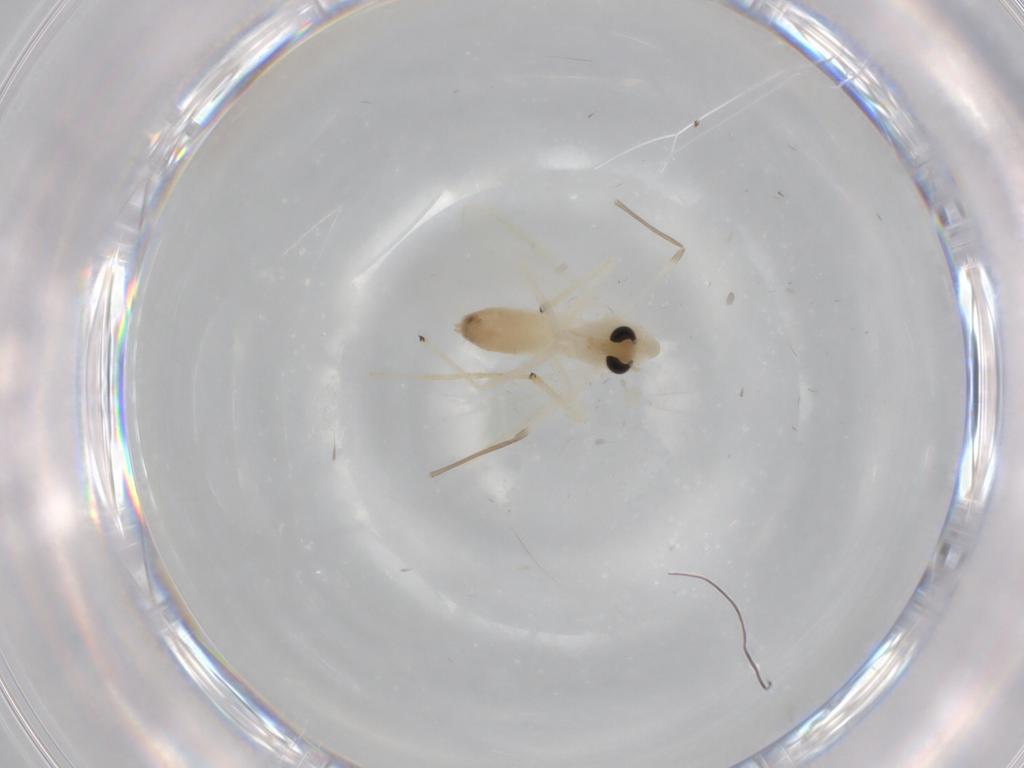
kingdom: Animalia
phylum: Arthropoda
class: Insecta
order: Diptera
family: Chironomidae
